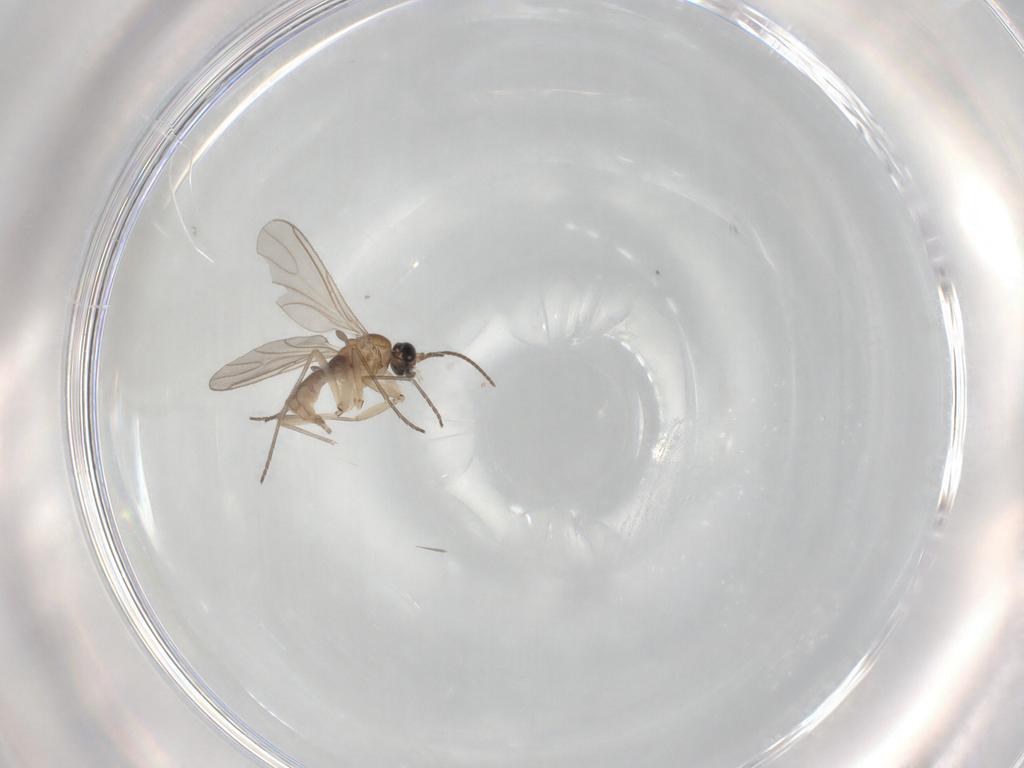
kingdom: Animalia
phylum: Arthropoda
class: Insecta
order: Diptera
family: Sciaridae
